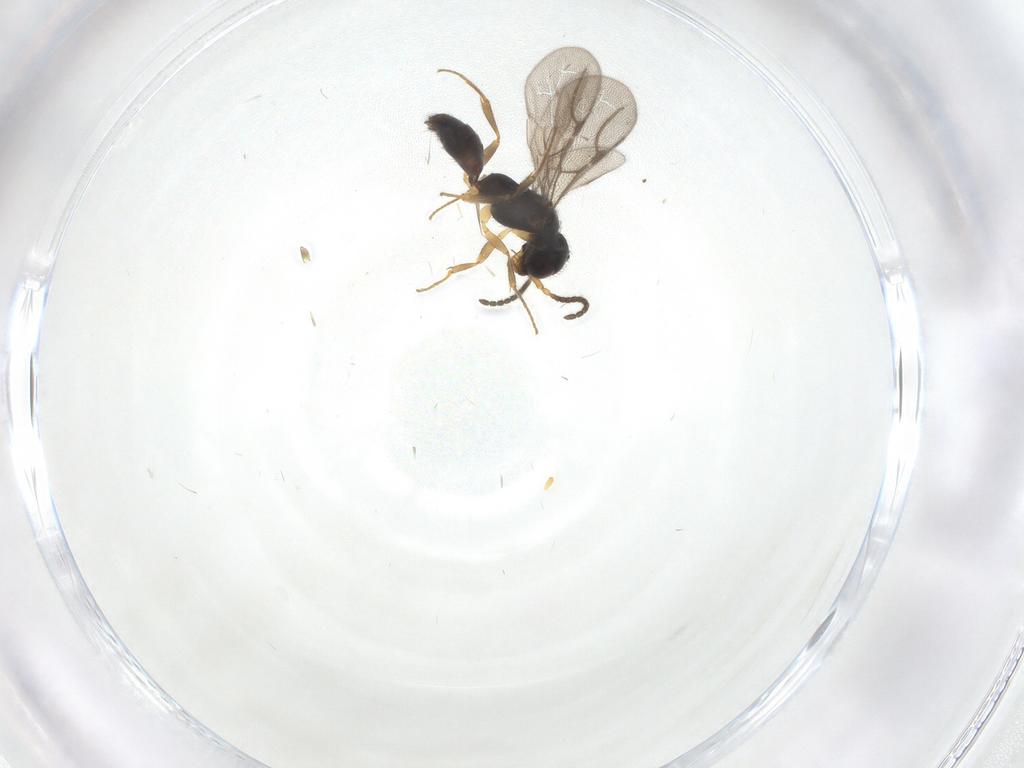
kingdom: Animalia
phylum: Arthropoda
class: Insecta
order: Hymenoptera
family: Bethylidae
